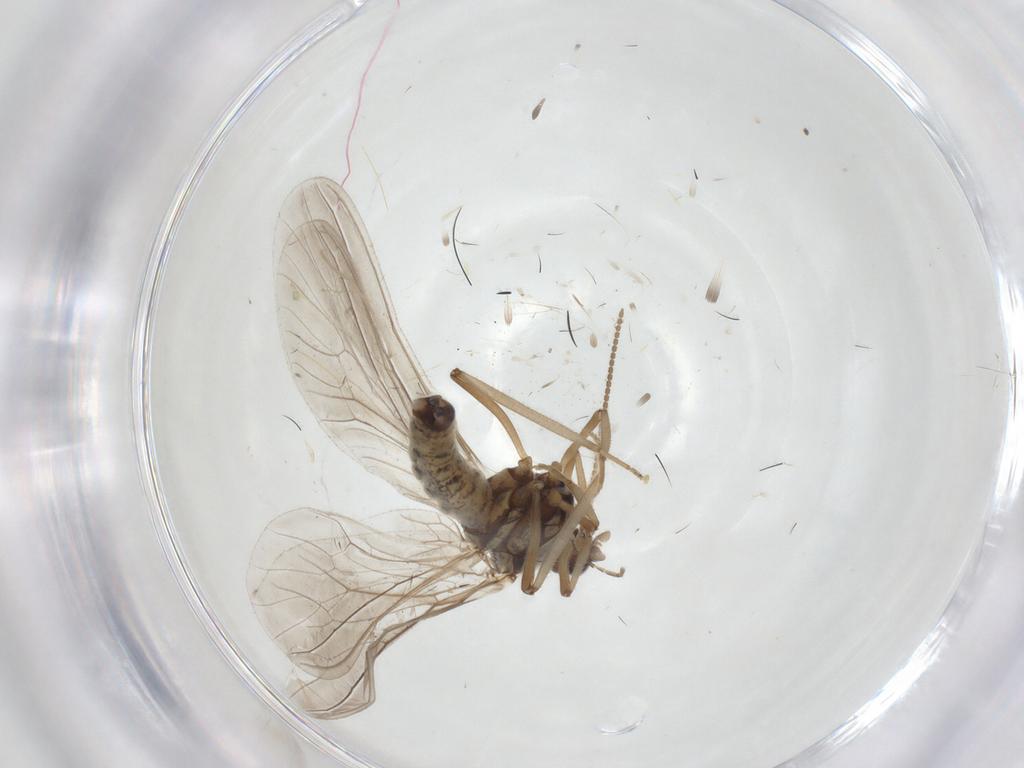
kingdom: Animalia
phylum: Arthropoda
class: Insecta
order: Neuroptera
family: Coniopterygidae
